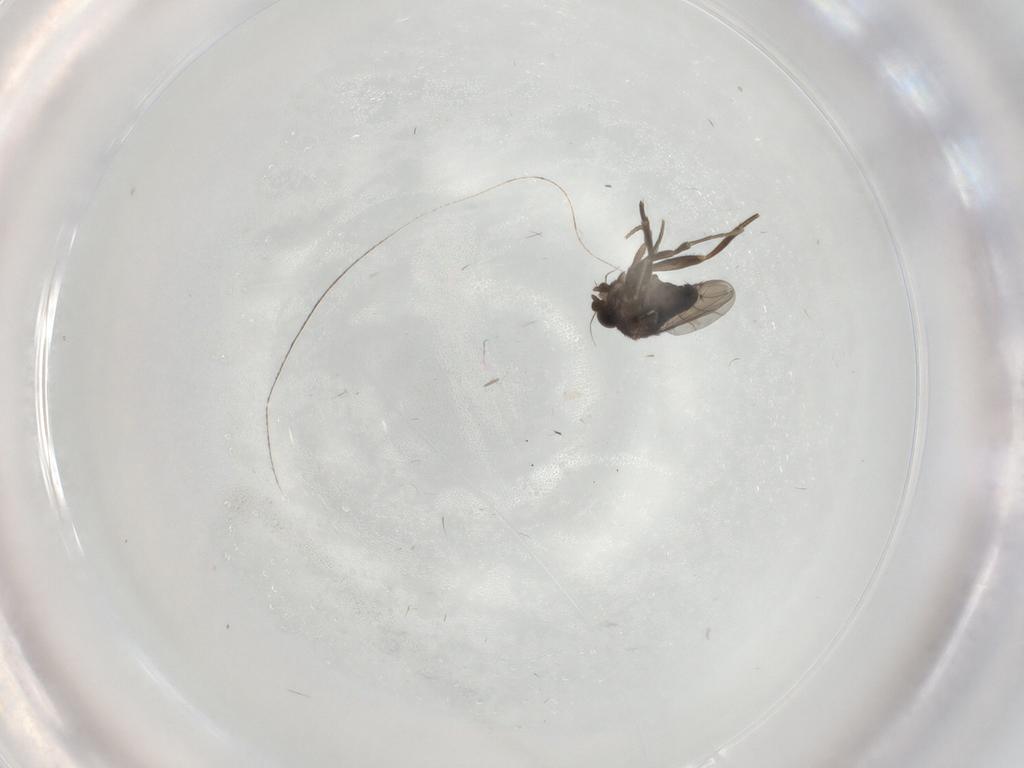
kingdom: Animalia
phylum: Arthropoda
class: Insecta
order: Diptera
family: Phoridae
